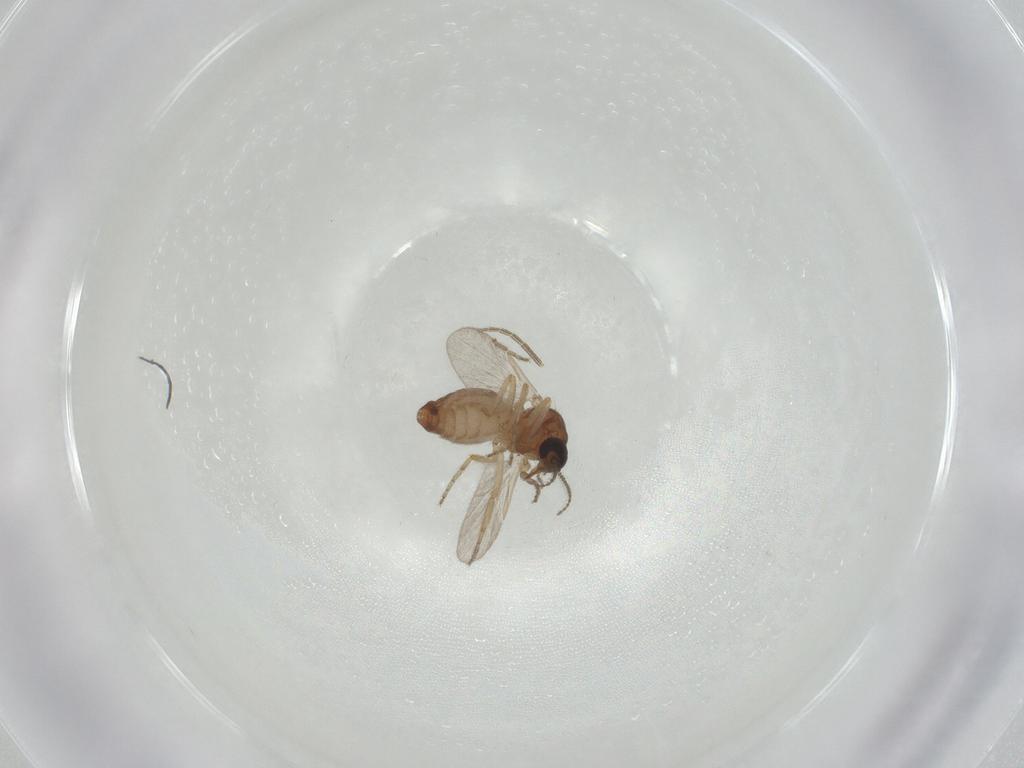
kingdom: Animalia
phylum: Arthropoda
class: Insecta
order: Diptera
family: Ceratopogonidae
